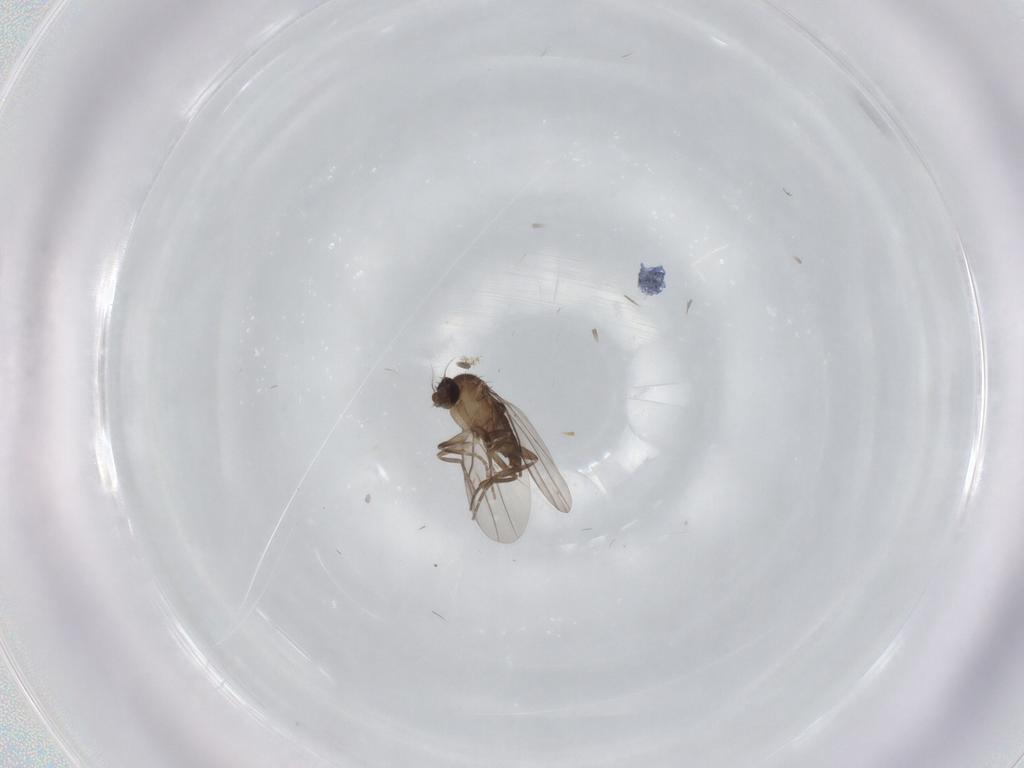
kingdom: Animalia
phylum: Arthropoda
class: Insecta
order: Diptera
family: Phoridae
